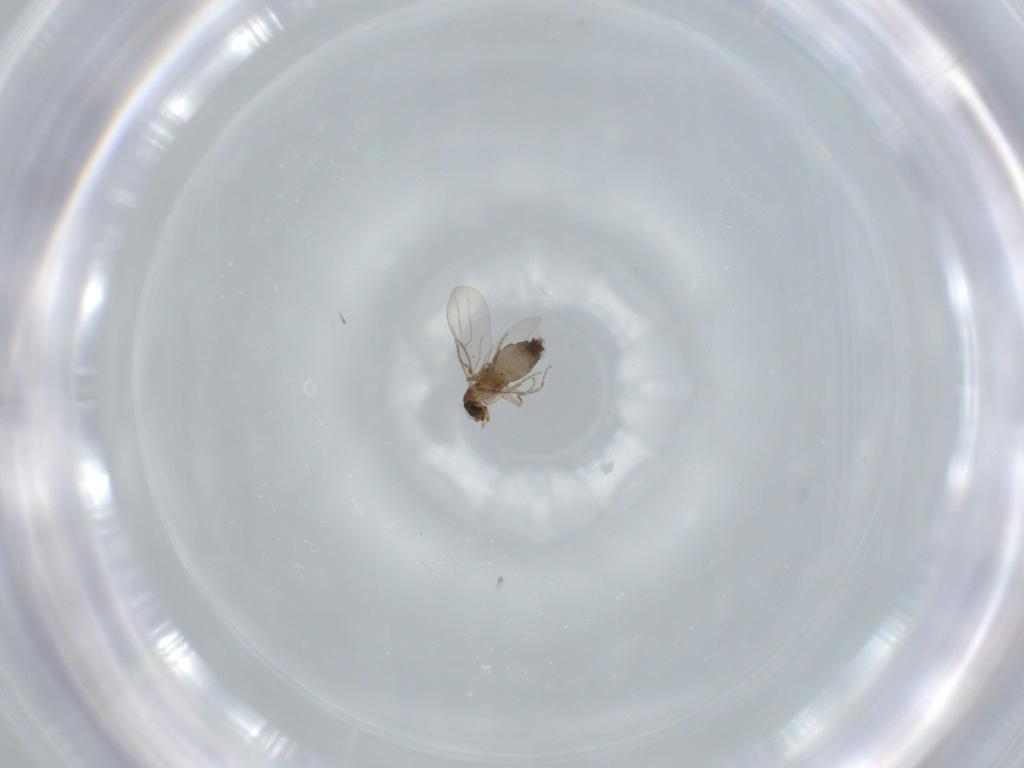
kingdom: Animalia
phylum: Arthropoda
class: Insecta
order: Diptera
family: Phoridae
